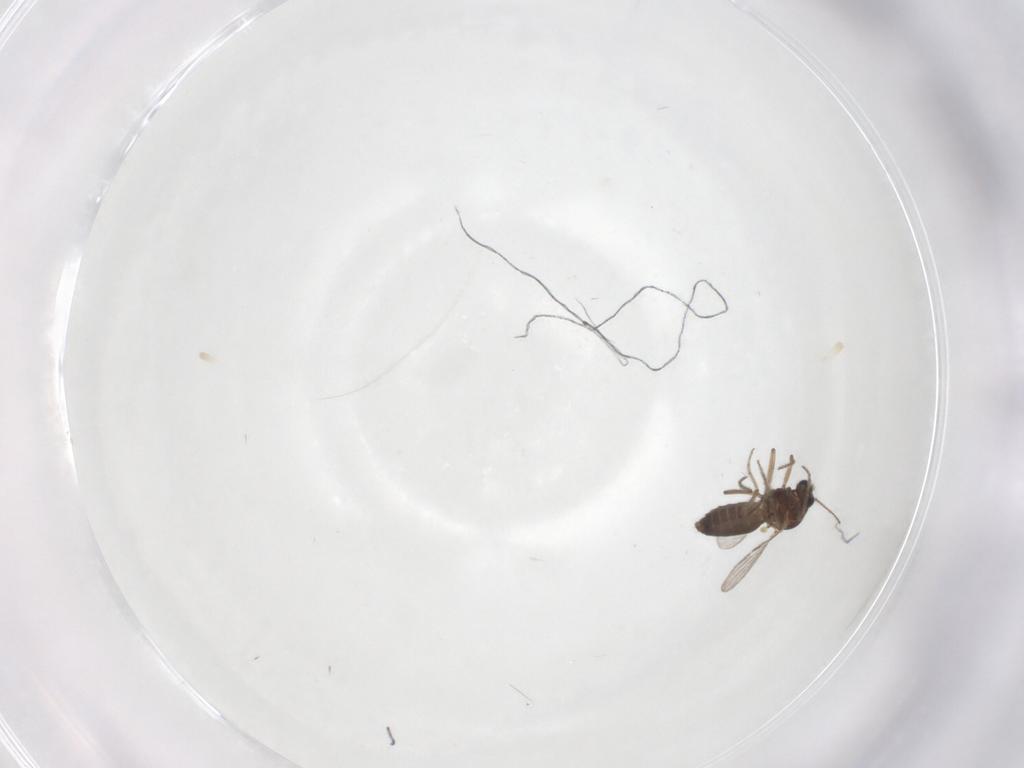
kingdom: Animalia
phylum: Arthropoda
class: Insecta
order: Diptera
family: Ceratopogonidae
